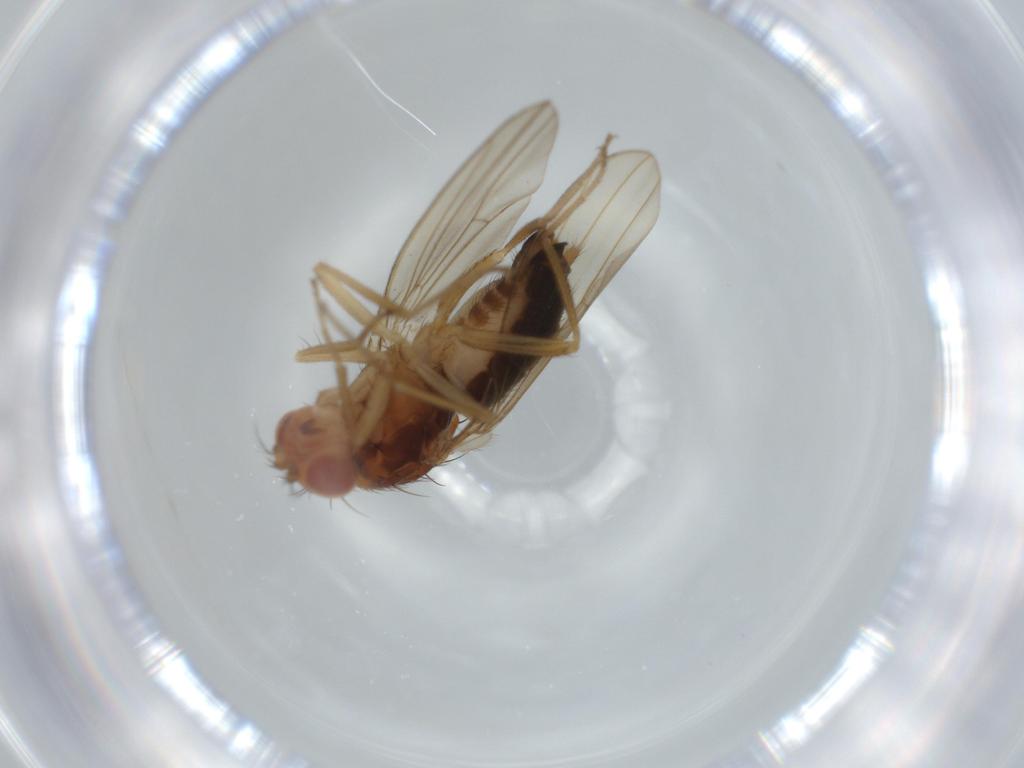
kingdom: Animalia
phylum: Arthropoda
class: Insecta
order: Diptera
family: Drosophilidae
